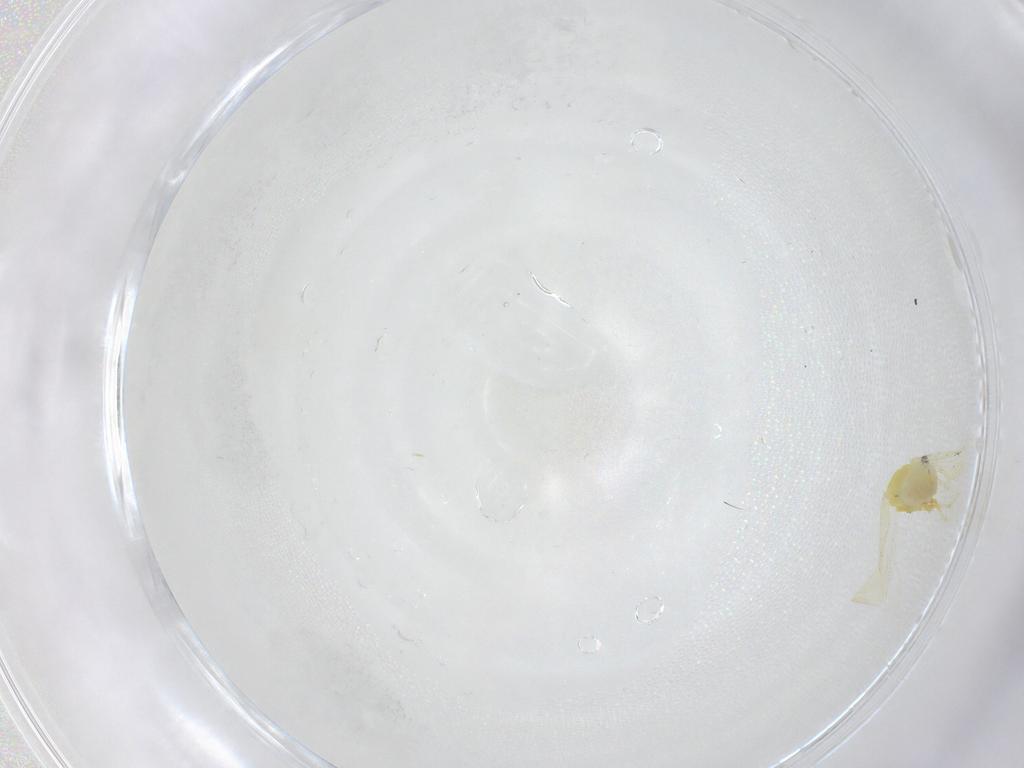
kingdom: Animalia
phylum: Arthropoda
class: Insecta
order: Hemiptera
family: Aleyrodidae
